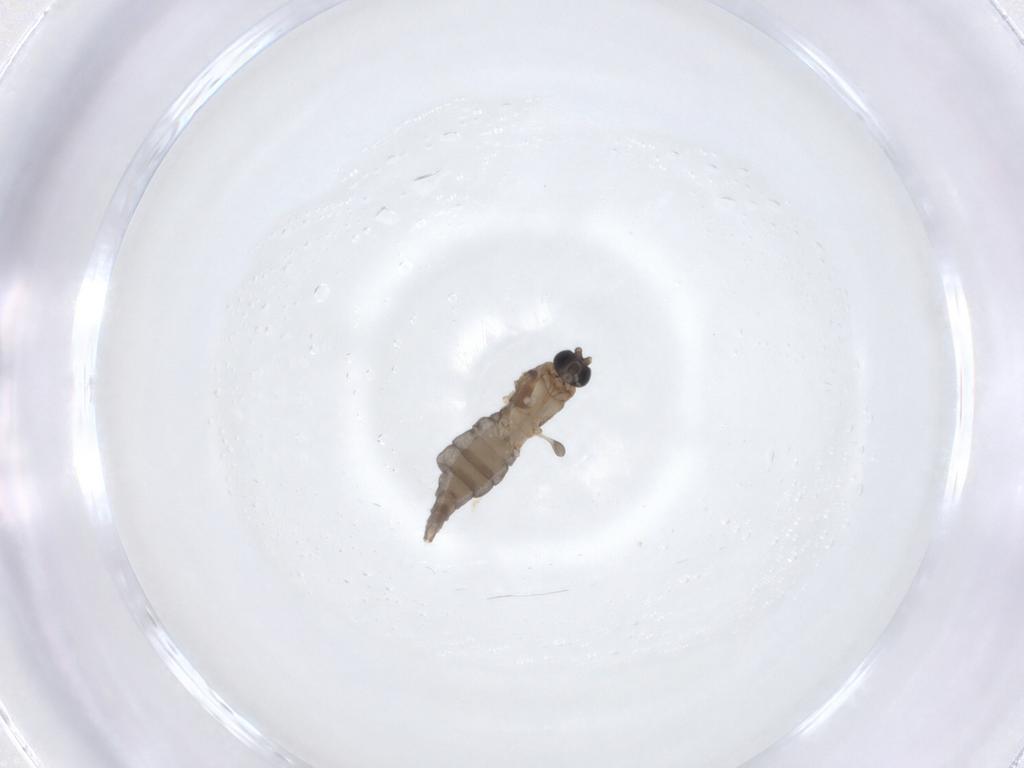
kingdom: Animalia
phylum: Arthropoda
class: Insecta
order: Diptera
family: Sciaridae
